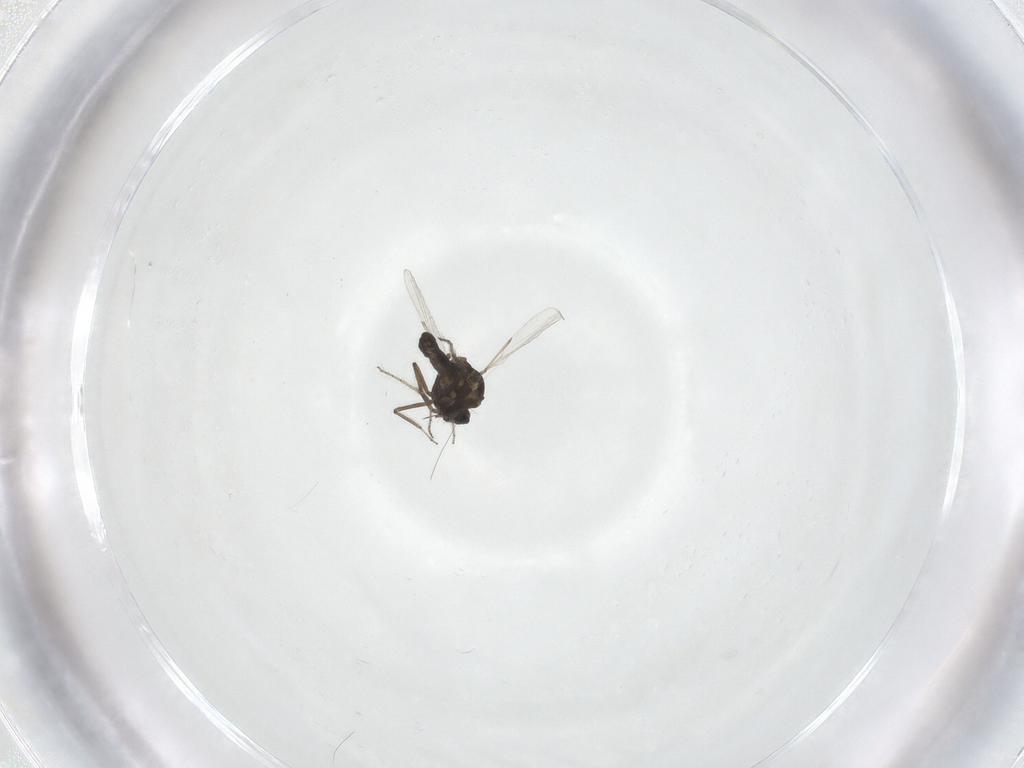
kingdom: Animalia
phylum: Arthropoda
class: Insecta
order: Diptera
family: Ceratopogonidae
